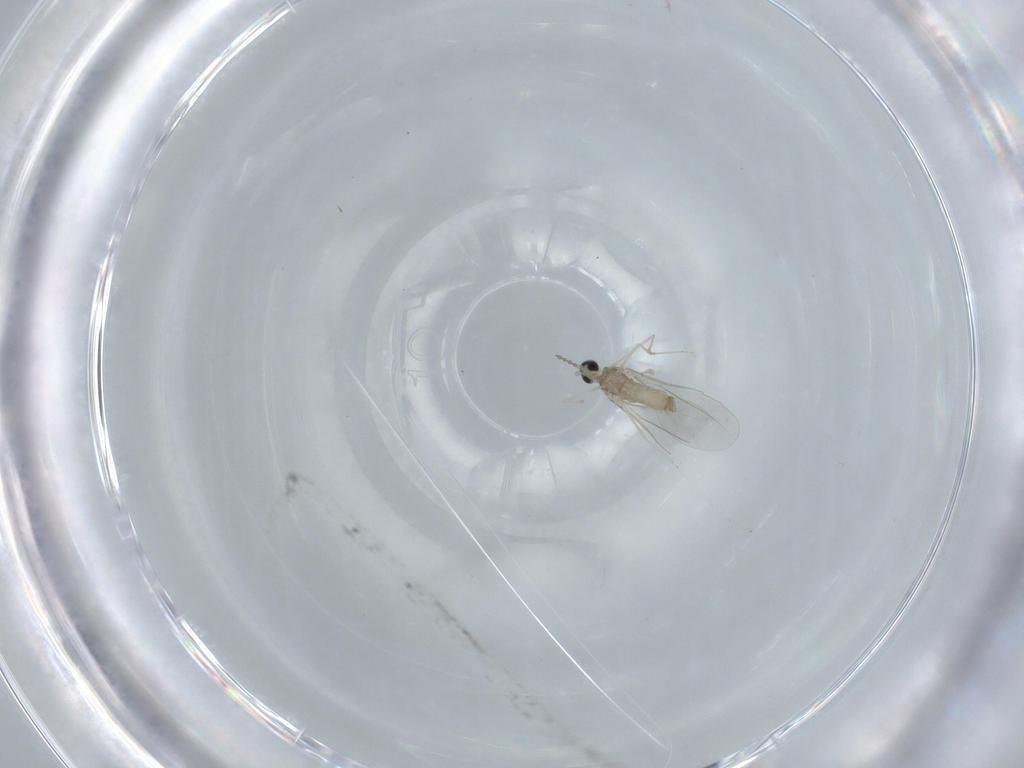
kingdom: Animalia
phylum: Arthropoda
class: Insecta
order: Diptera
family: Cecidomyiidae
